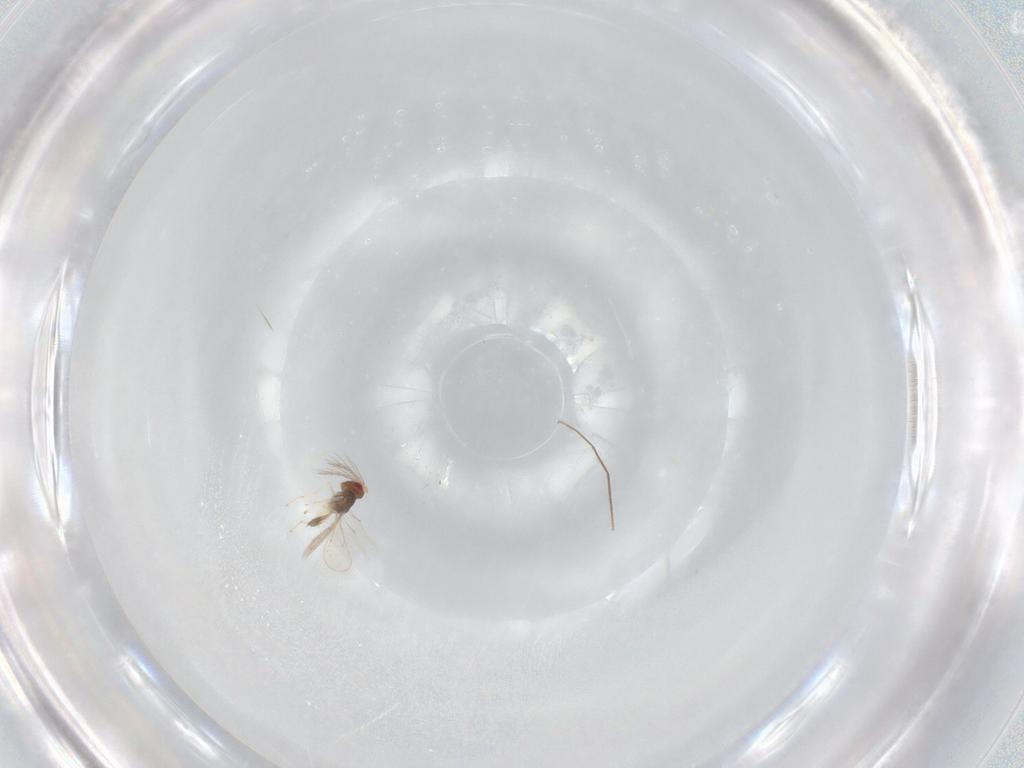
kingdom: Animalia
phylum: Arthropoda
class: Insecta
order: Hymenoptera
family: Eulophidae
